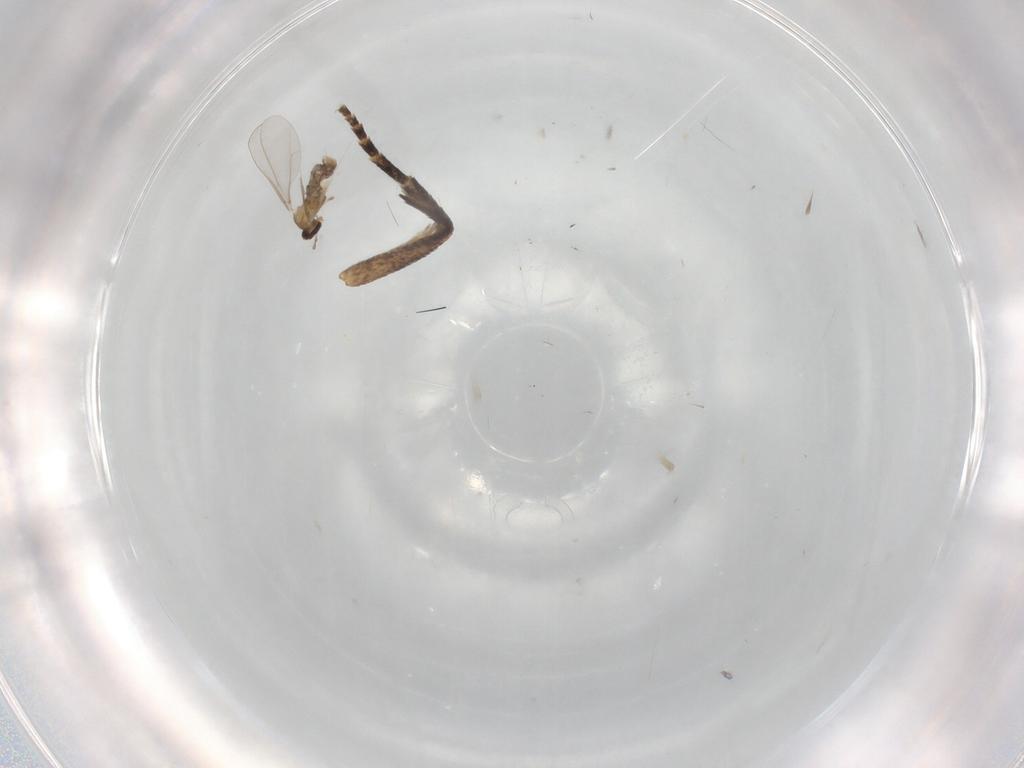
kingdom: Animalia
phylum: Arthropoda
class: Insecta
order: Diptera
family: Cecidomyiidae
